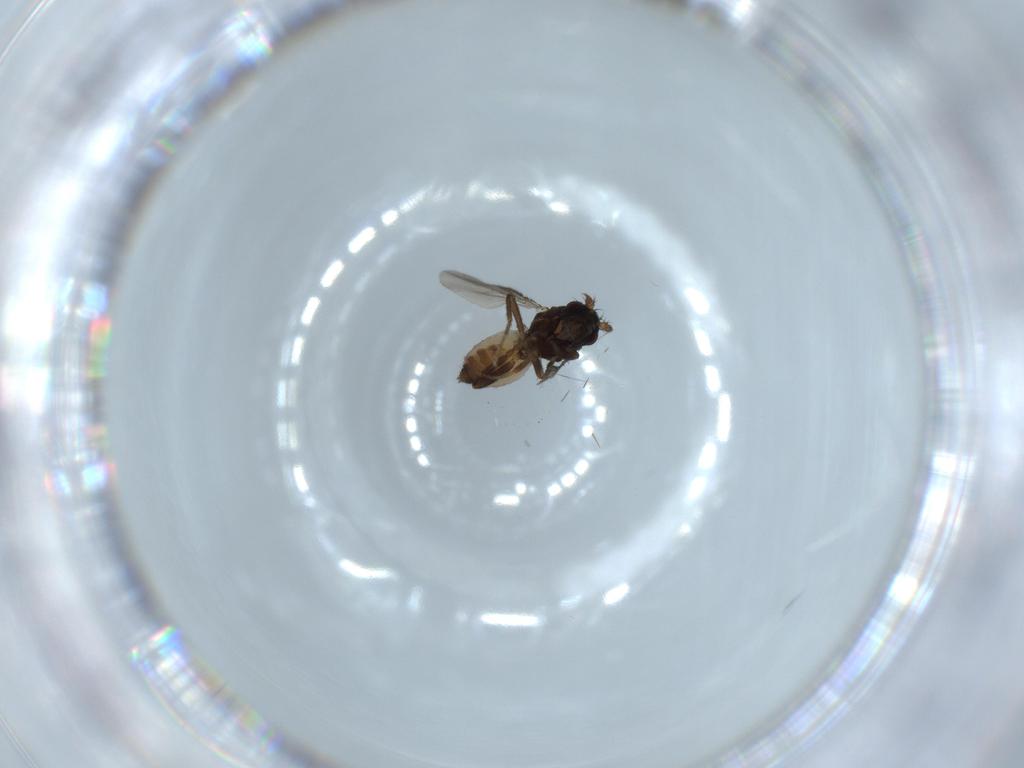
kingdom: Animalia
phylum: Arthropoda
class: Insecta
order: Diptera
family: Sphaeroceridae
